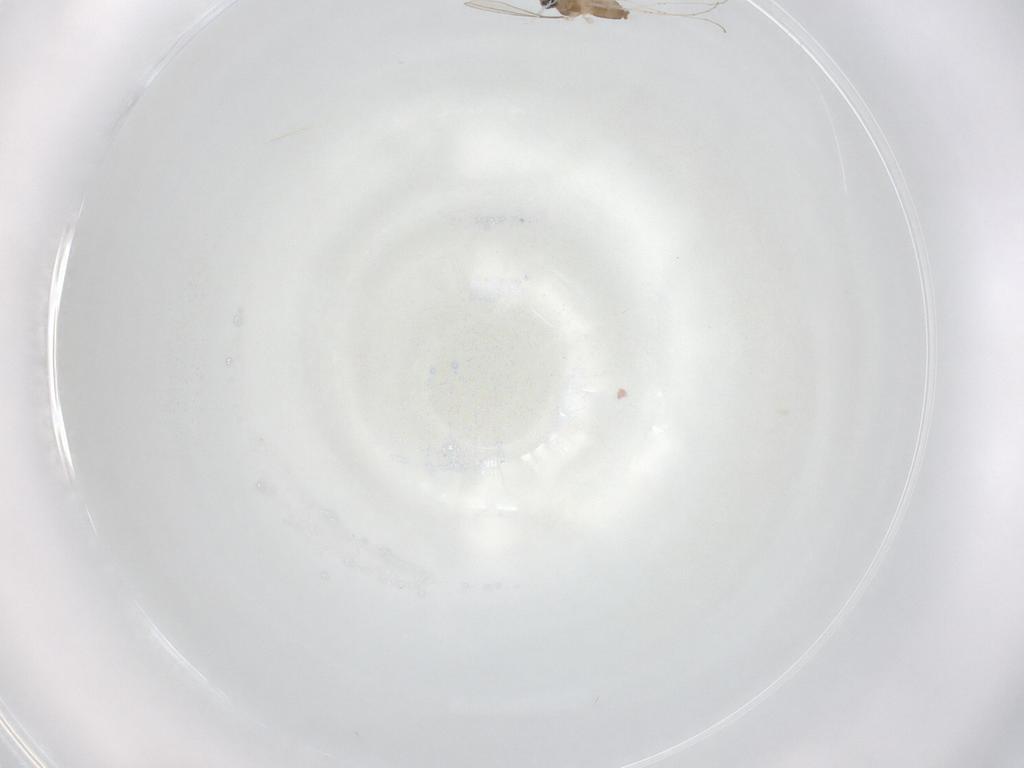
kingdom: Animalia
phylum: Arthropoda
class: Insecta
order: Diptera
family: Cecidomyiidae
